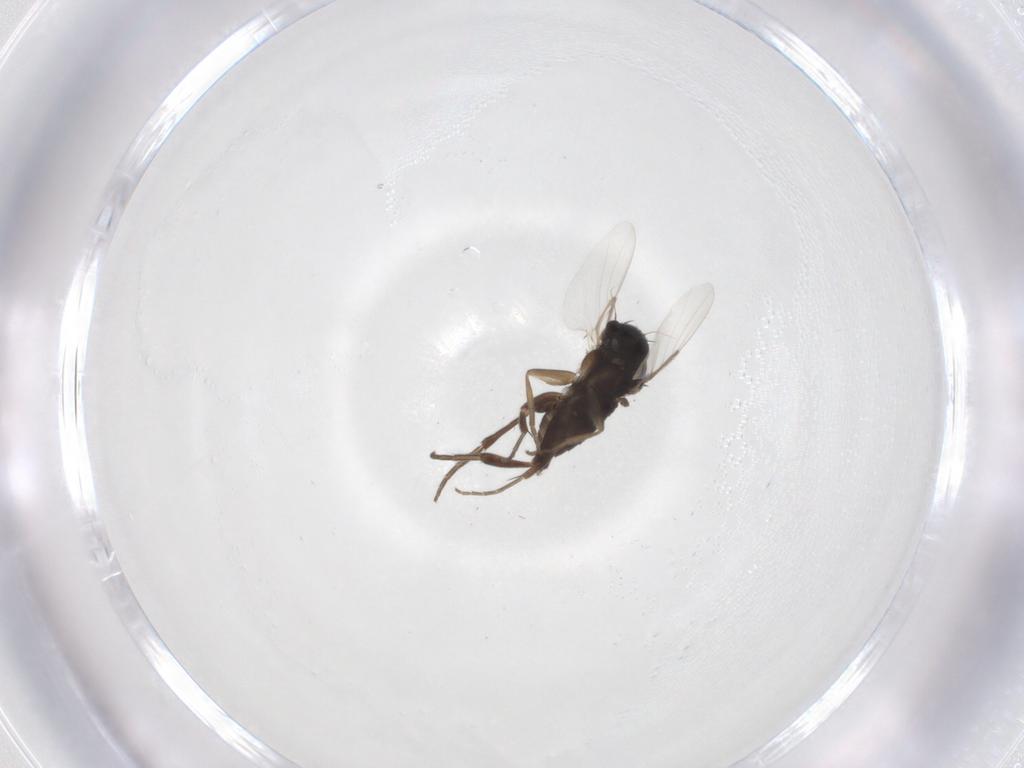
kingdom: Animalia
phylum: Arthropoda
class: Insecta
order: Diptera
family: Phoridae
